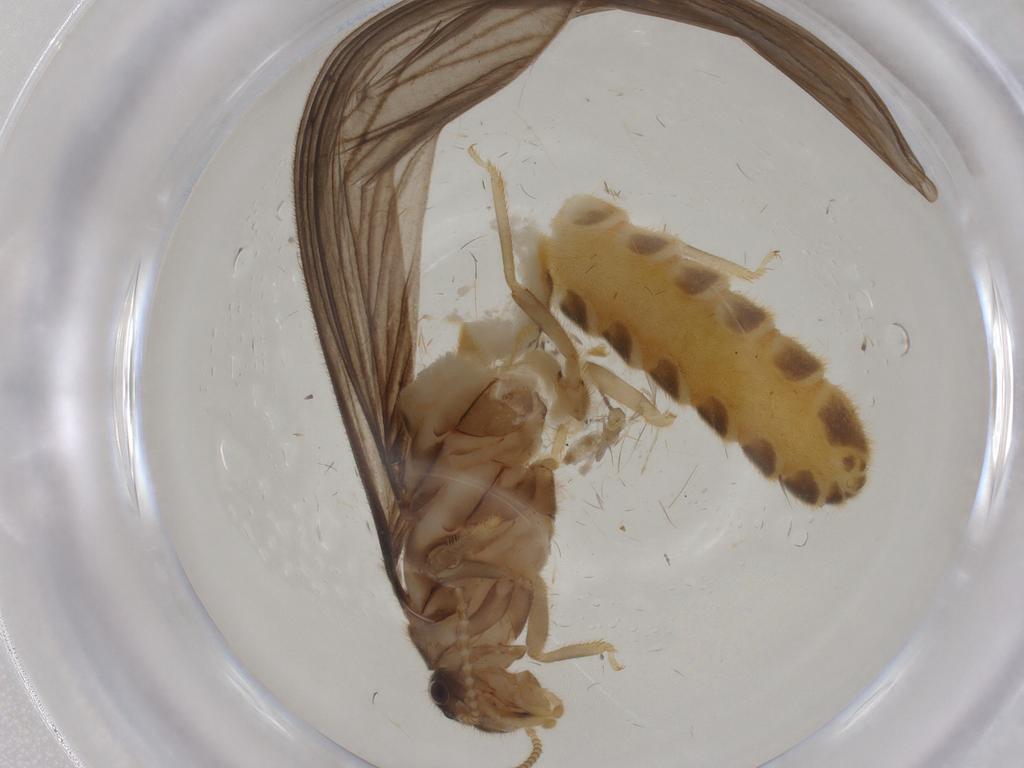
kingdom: Animalia
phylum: Arthropoda
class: Insecta
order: Blattodea
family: Termitidae
